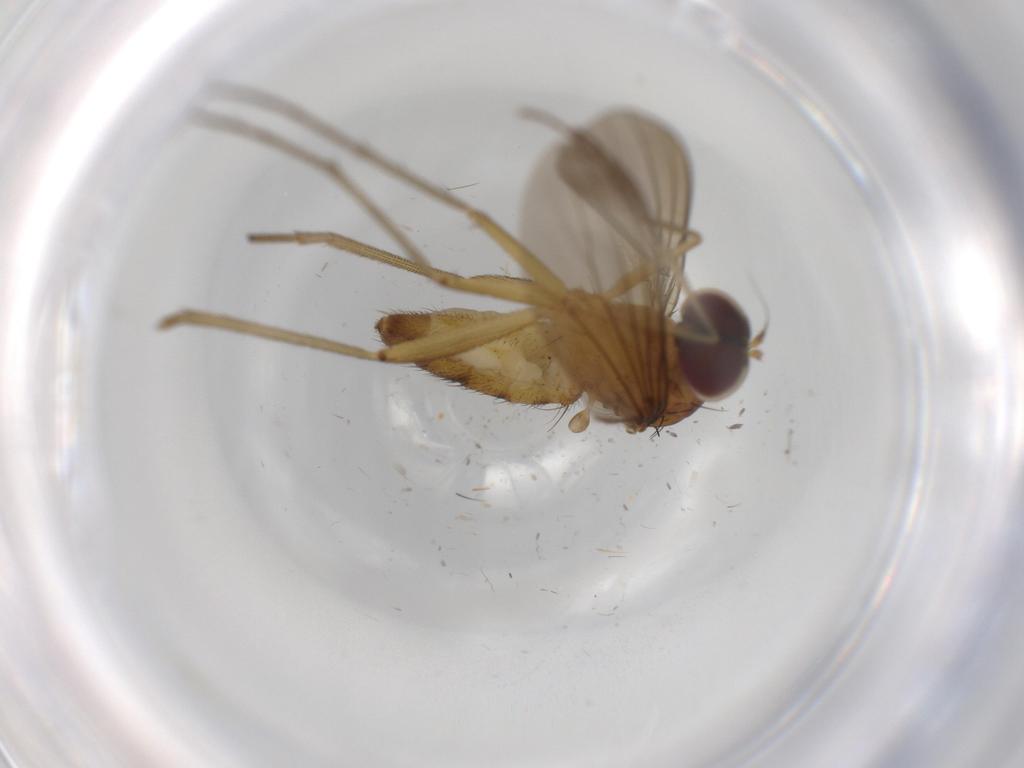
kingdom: Animalia
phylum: Arthropoda
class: Insecta
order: Diptera
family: Dolichopodidae
